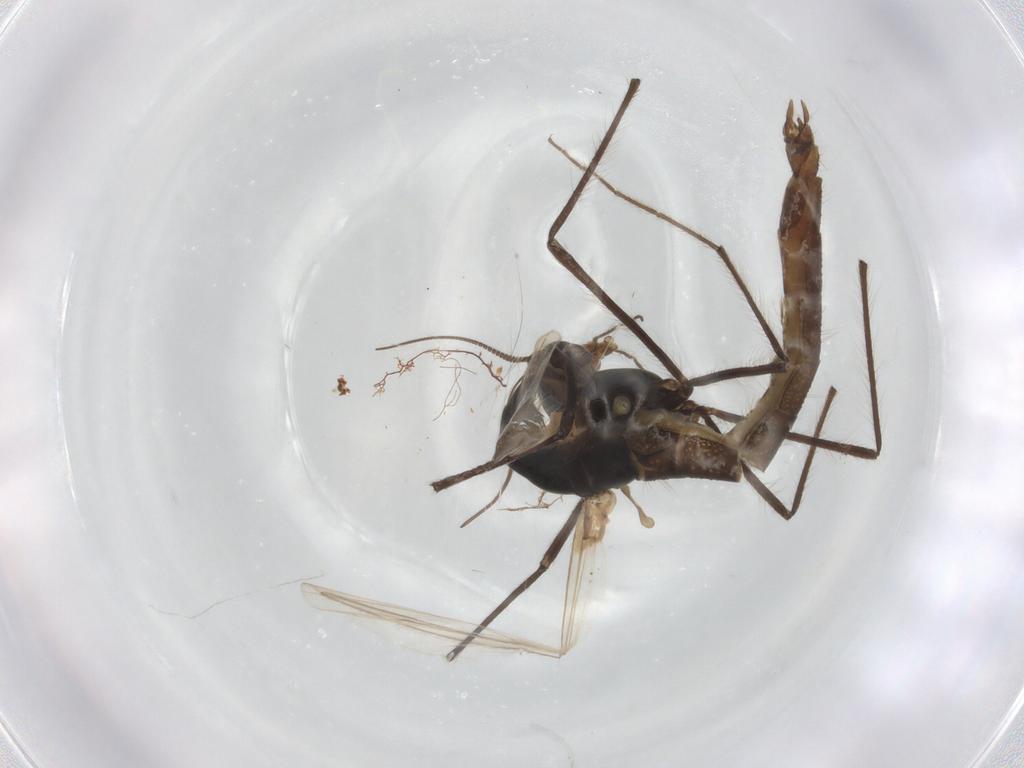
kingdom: Animalia
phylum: Arthropoda
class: Insecta
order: Diptera
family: Chironomidae
